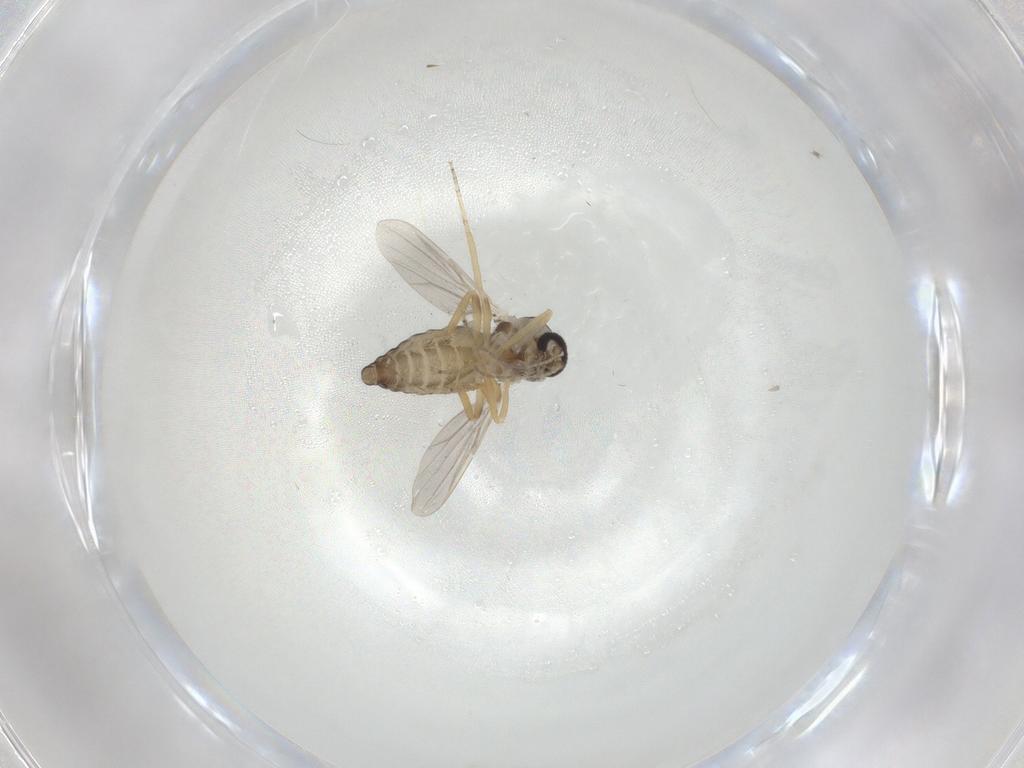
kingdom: Animalia
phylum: Arthropoda
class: Insecta
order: Diptera
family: Ceratopogonidae
